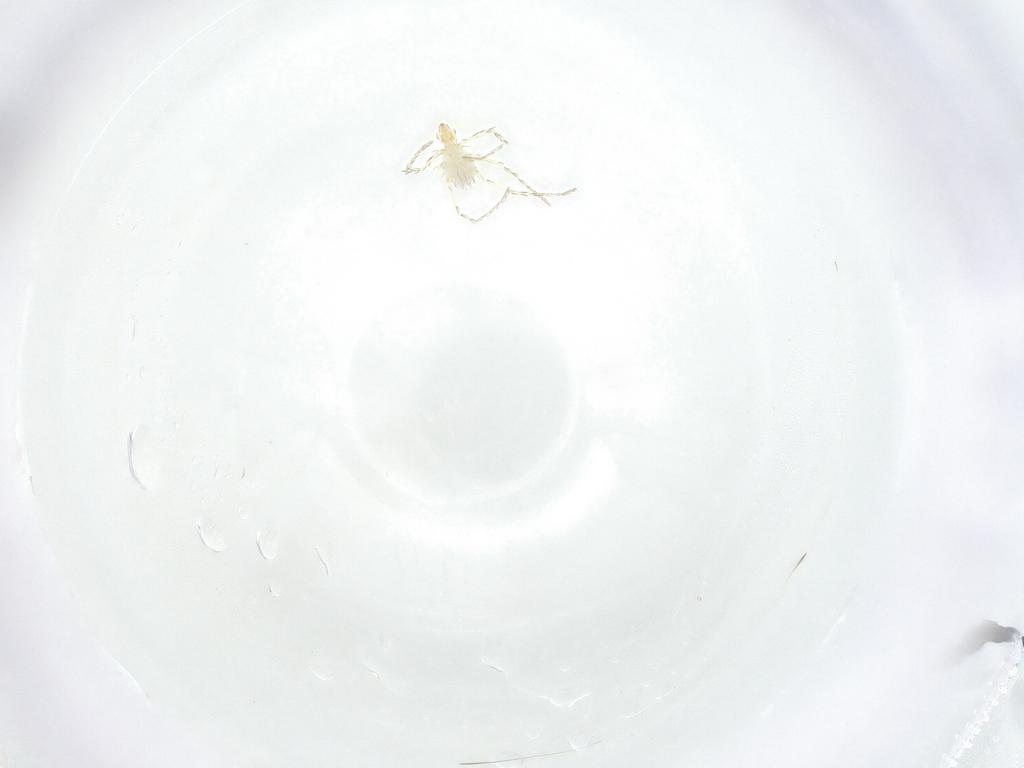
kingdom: Animalia
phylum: Arthropoda
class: Arachnida
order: Trombidiformes
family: Erythraeidae
